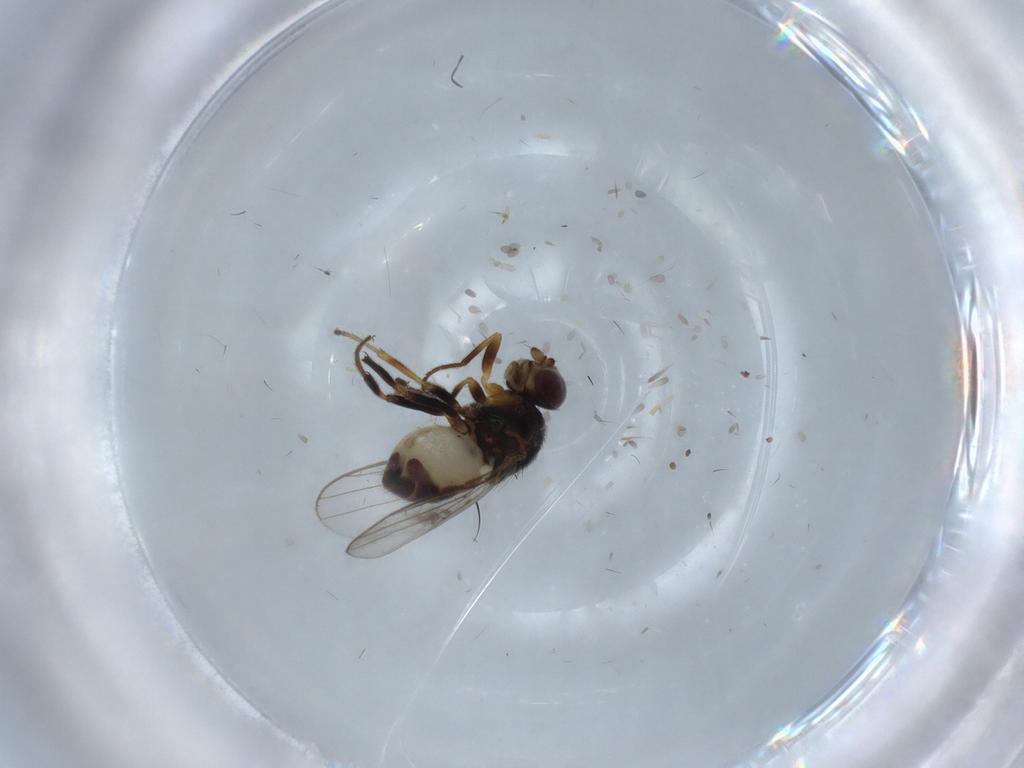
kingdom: Animalia
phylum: Arthropoda
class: Insecta
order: Diptera
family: Chloropidae
